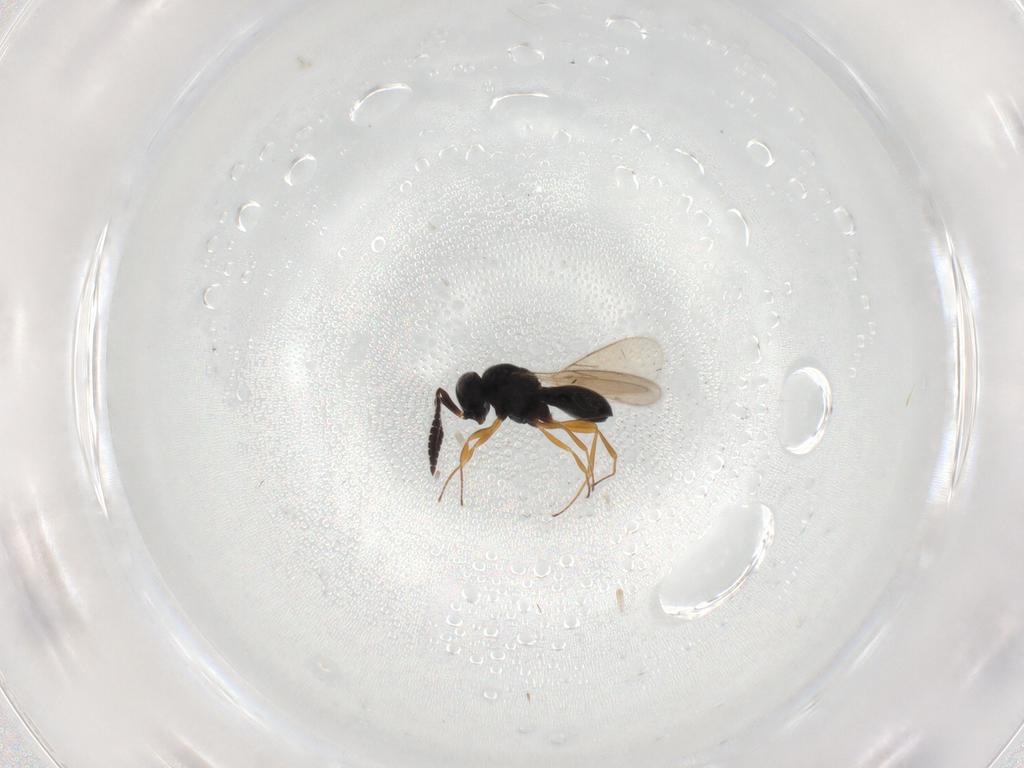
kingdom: Animalia
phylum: Arthropoda
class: Insecta
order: Hymenoptera
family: Scelionidae
